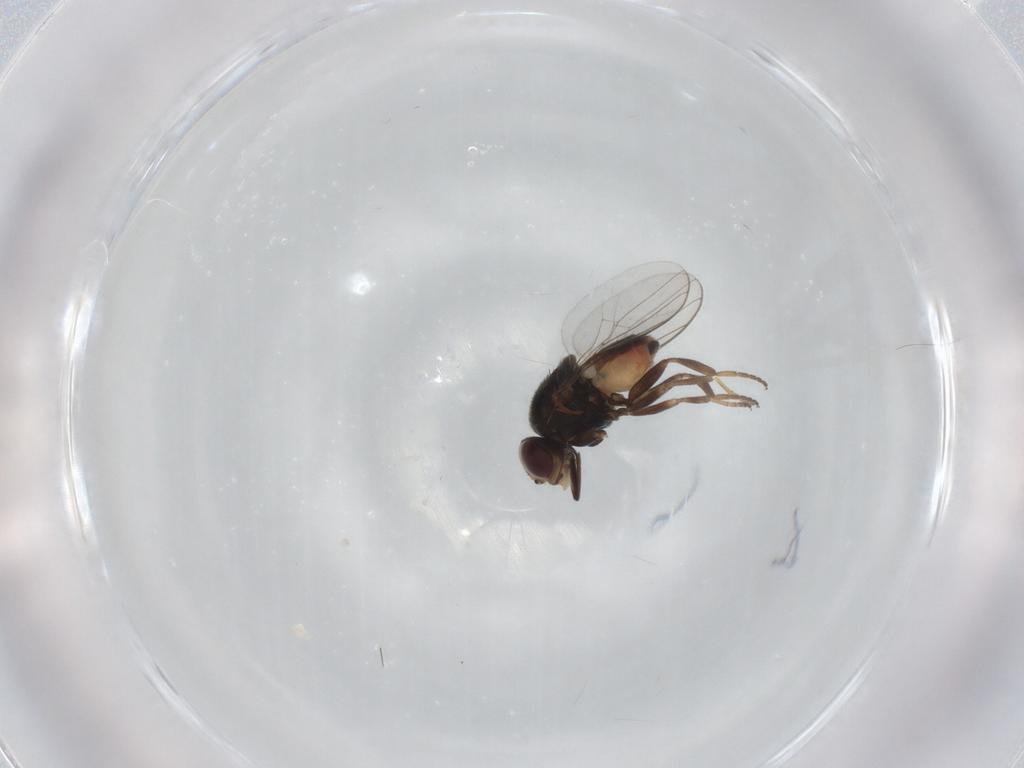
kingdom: Animalia
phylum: Arthropoda
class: Insecta
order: Diptera
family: Chloropidae
